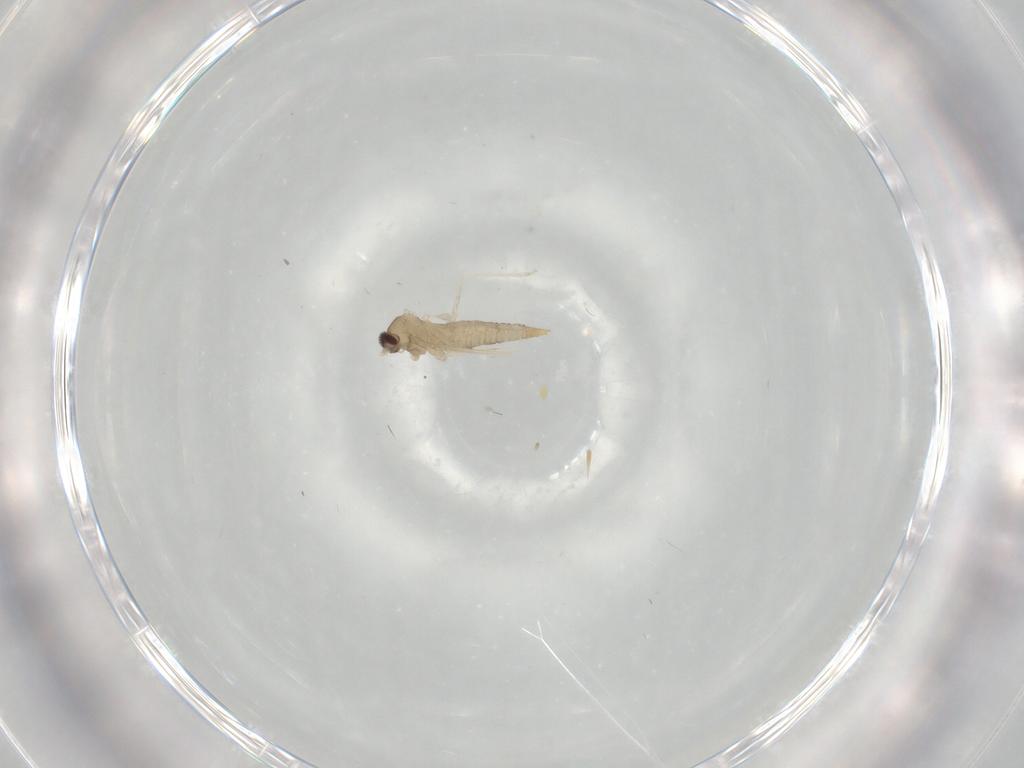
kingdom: Animalia
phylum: Arthropoda
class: Insecta
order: Diptera
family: Cecidomyiidae
